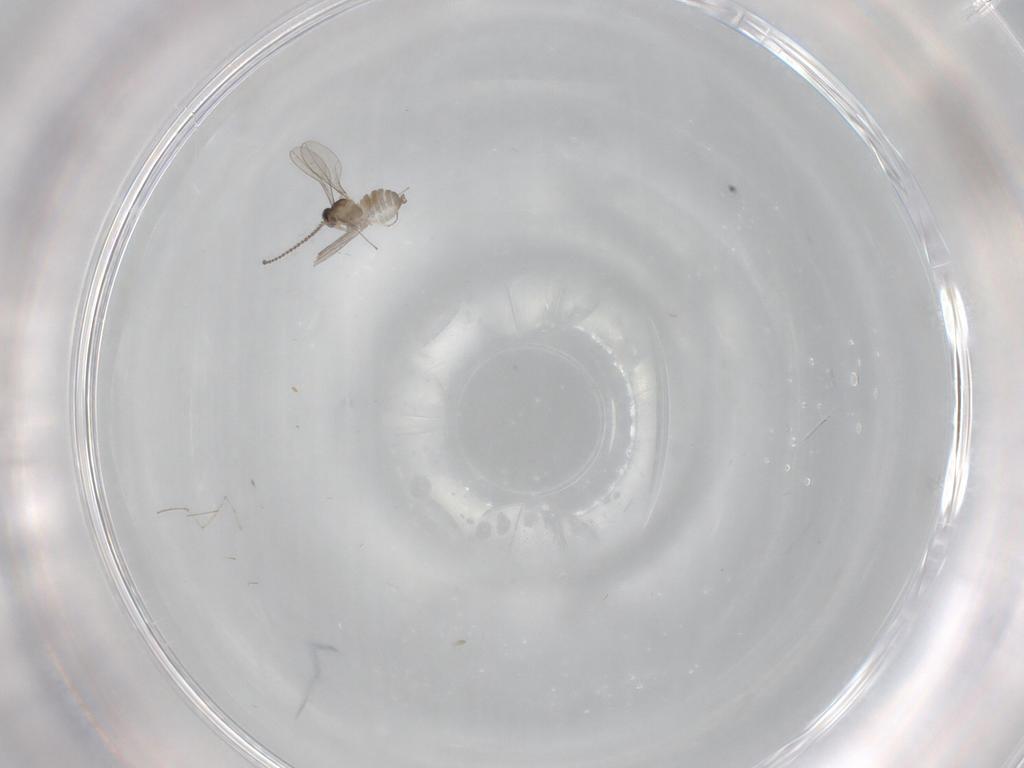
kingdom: Animalia
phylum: Arthropoda
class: Insecta
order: Diptera
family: Cecidomyiidae
